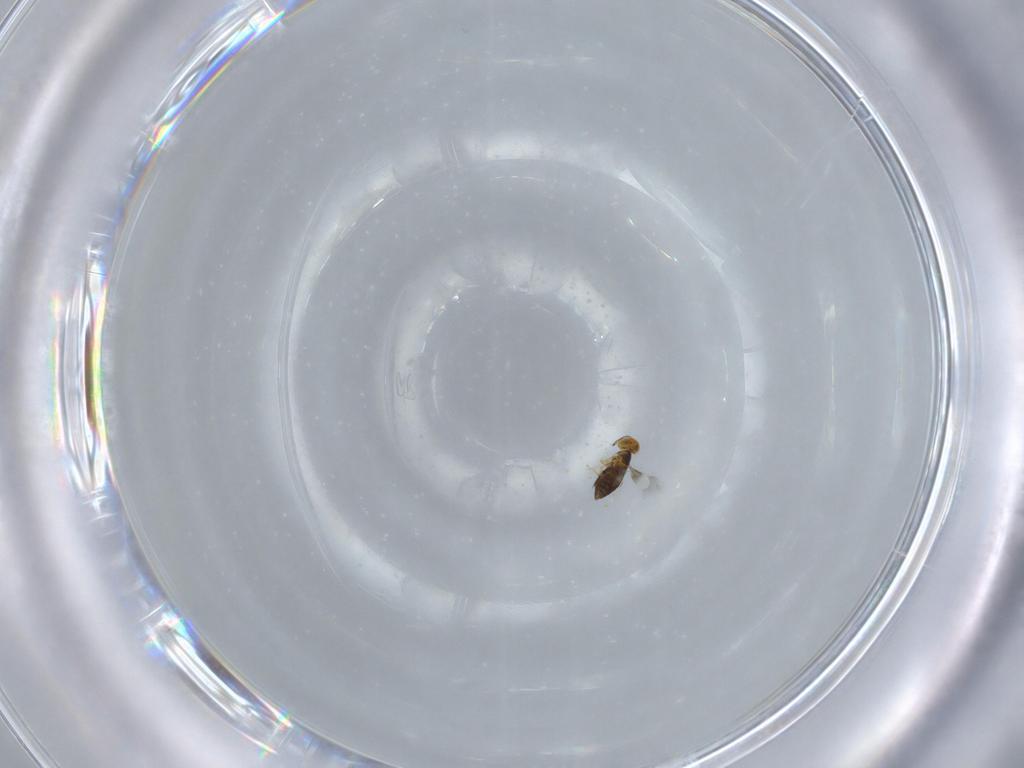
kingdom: Animalia
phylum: Arthropoda
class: Insecta
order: Hymenoptera
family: Signiphoridae
